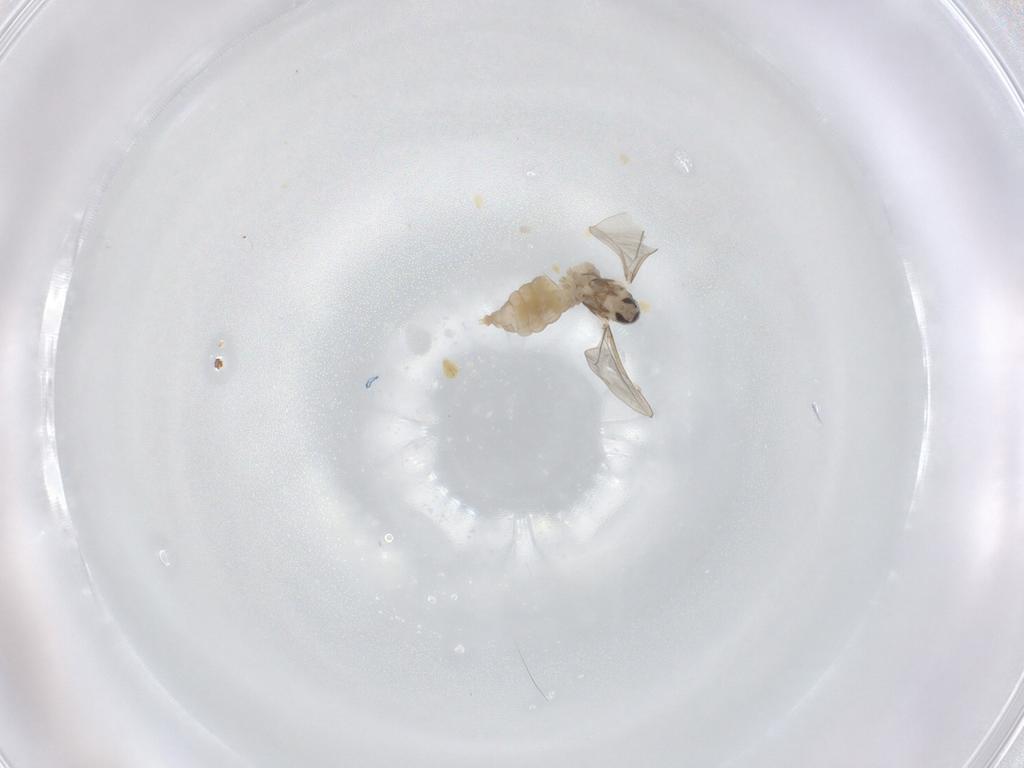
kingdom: Animalia
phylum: Arthropoda
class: Insecta
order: Diptera
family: Cecidomyiidae
